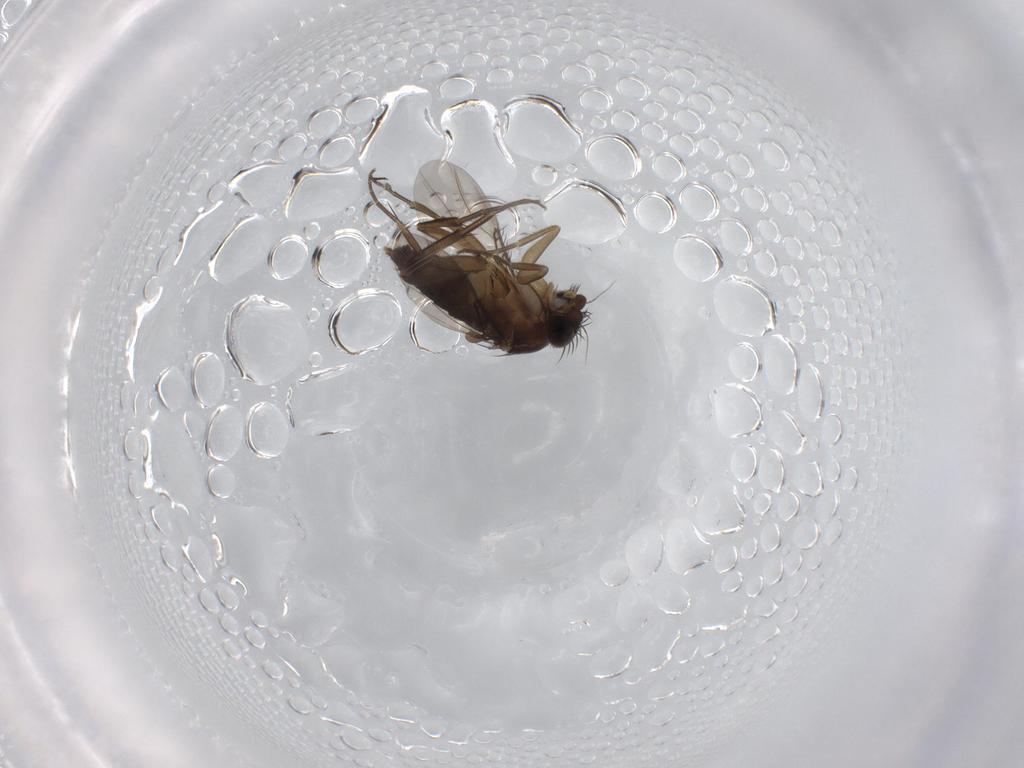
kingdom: Animalia
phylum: Arthropoda
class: Insecta
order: Diptera
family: Phoridae
